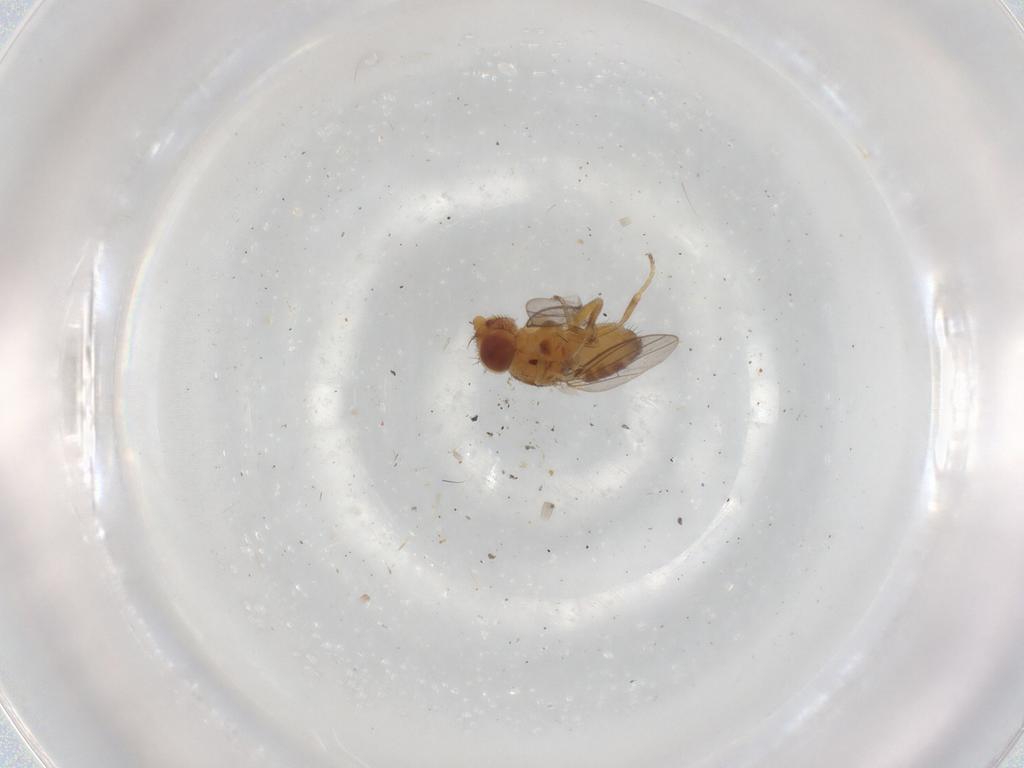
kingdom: Animalia
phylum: Arthropoda
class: Insecta
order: Diptera
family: Chloropidae
